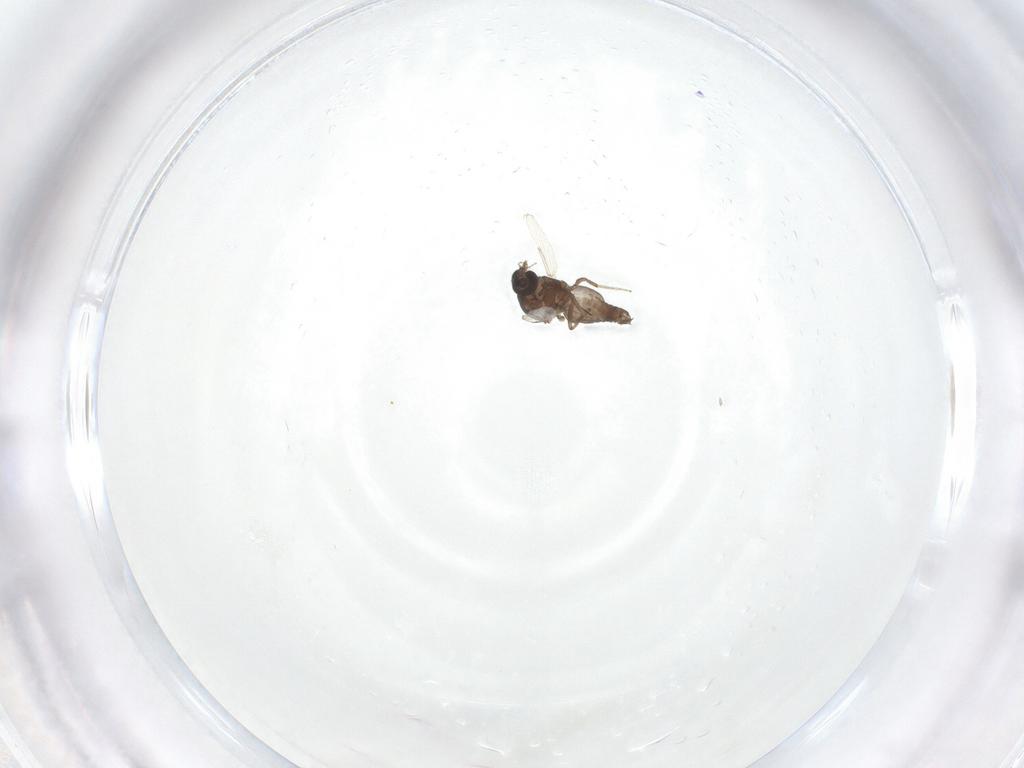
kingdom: Animalia
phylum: Arthropoda
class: Insecta
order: Diptera
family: Ceratopogonidae
